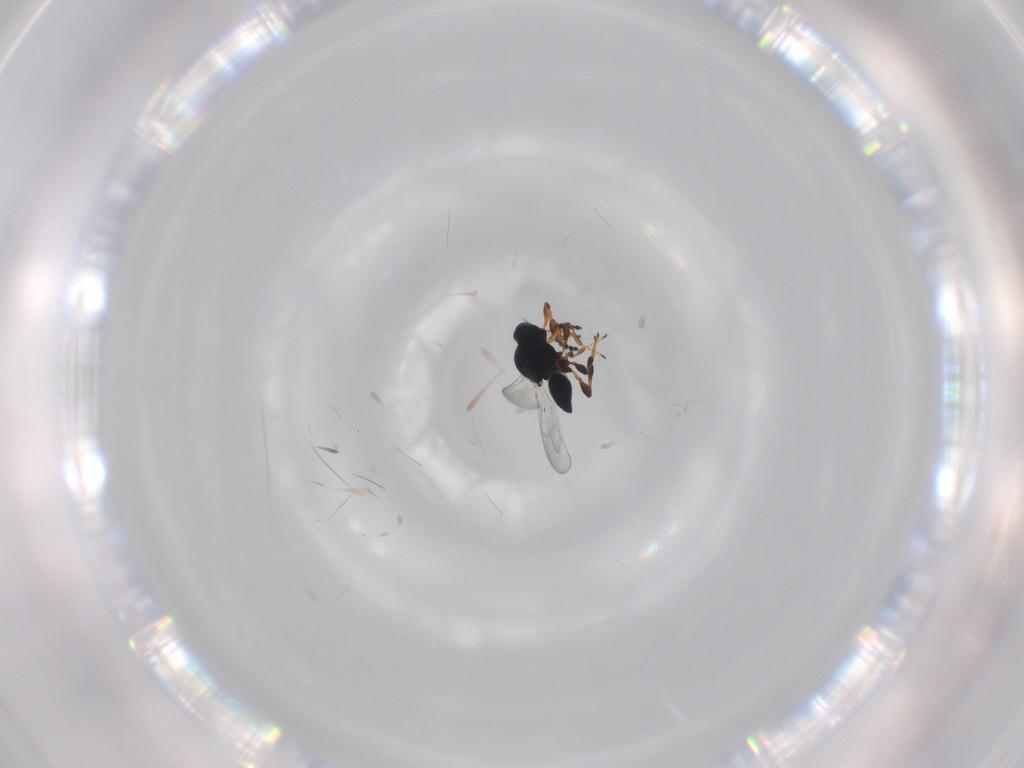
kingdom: Animalia
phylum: Arthropoda
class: Insecta
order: Hymenoptera
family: Platygastridae
